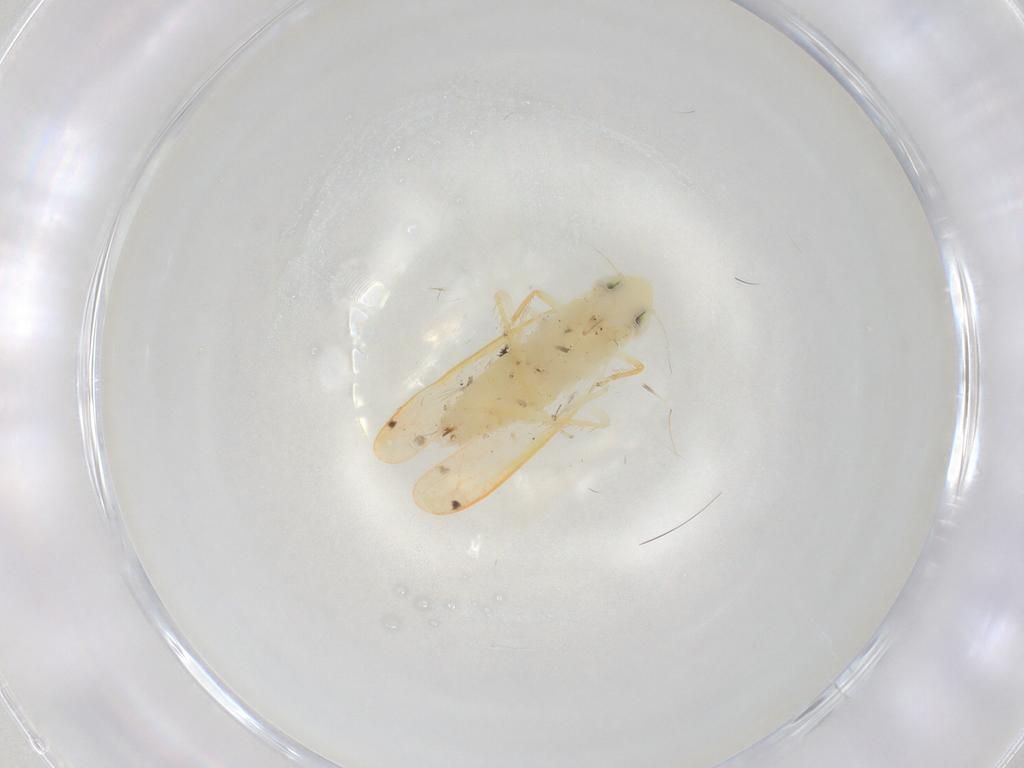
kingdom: Animalia
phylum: Arthropoda
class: Insecta
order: Hemiptera
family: Cicadellidae
